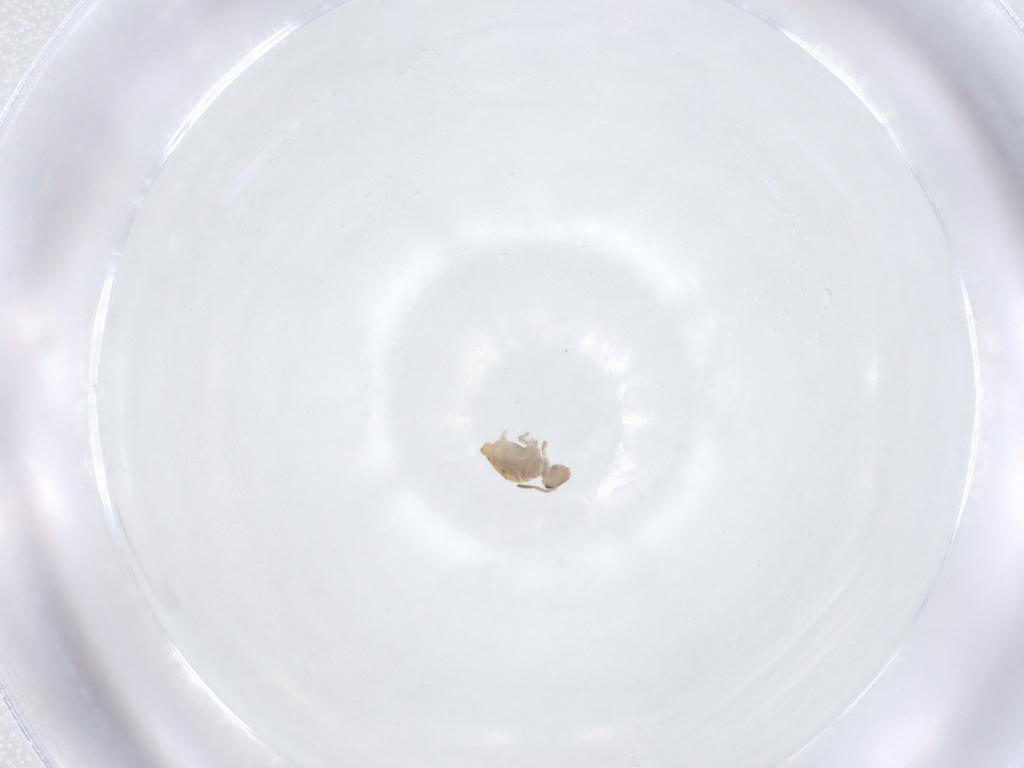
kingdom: Animalia
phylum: Arthropoda
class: Collembola
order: Symphypleona
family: Katiannidae
